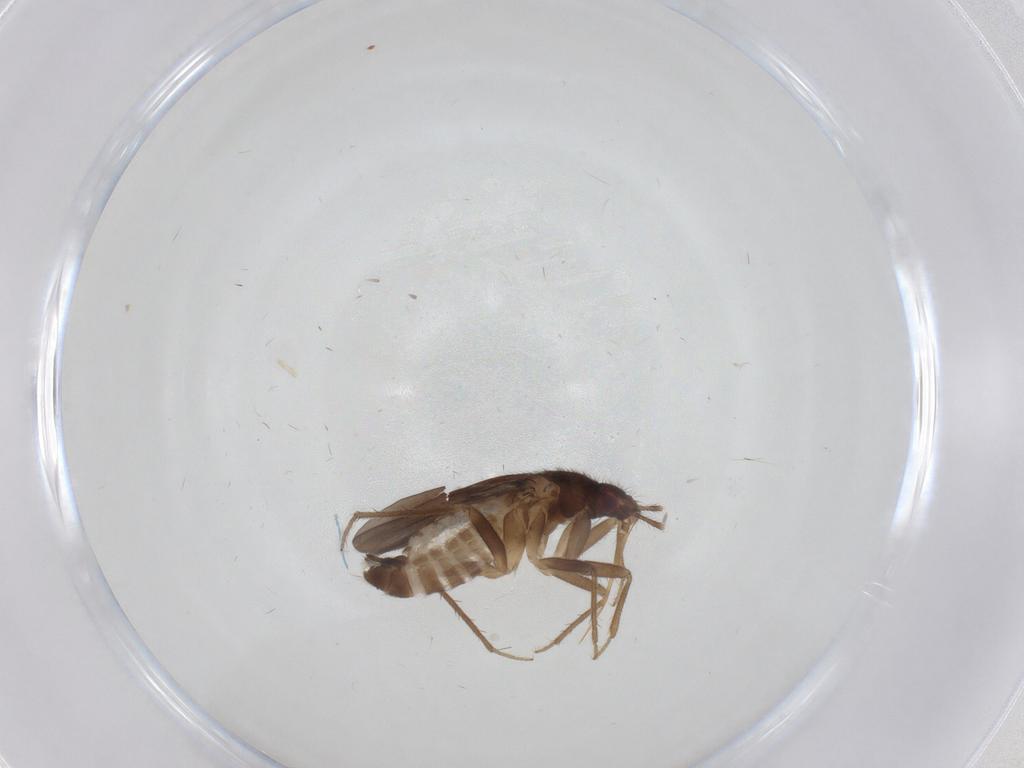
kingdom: Animalia
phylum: Arthropoda
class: Insecta
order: Hemiptera
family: Ceratocombidae
